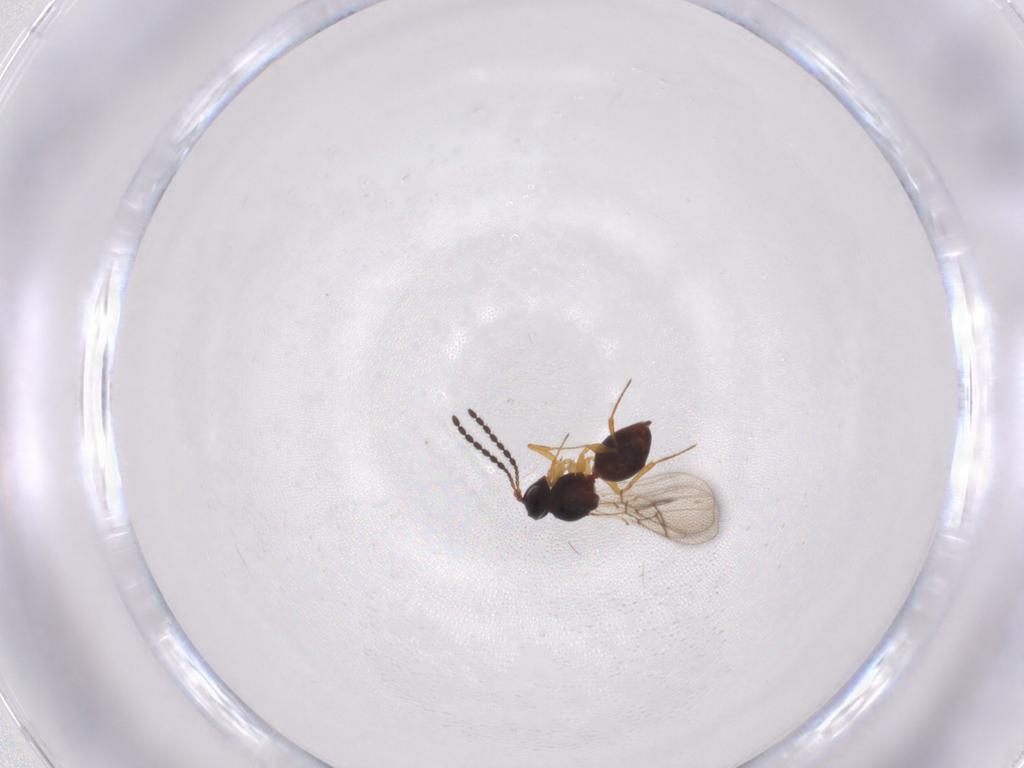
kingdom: Animalia
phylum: Arthropoda
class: Insecta
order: Hymenoptera
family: Figitidae
